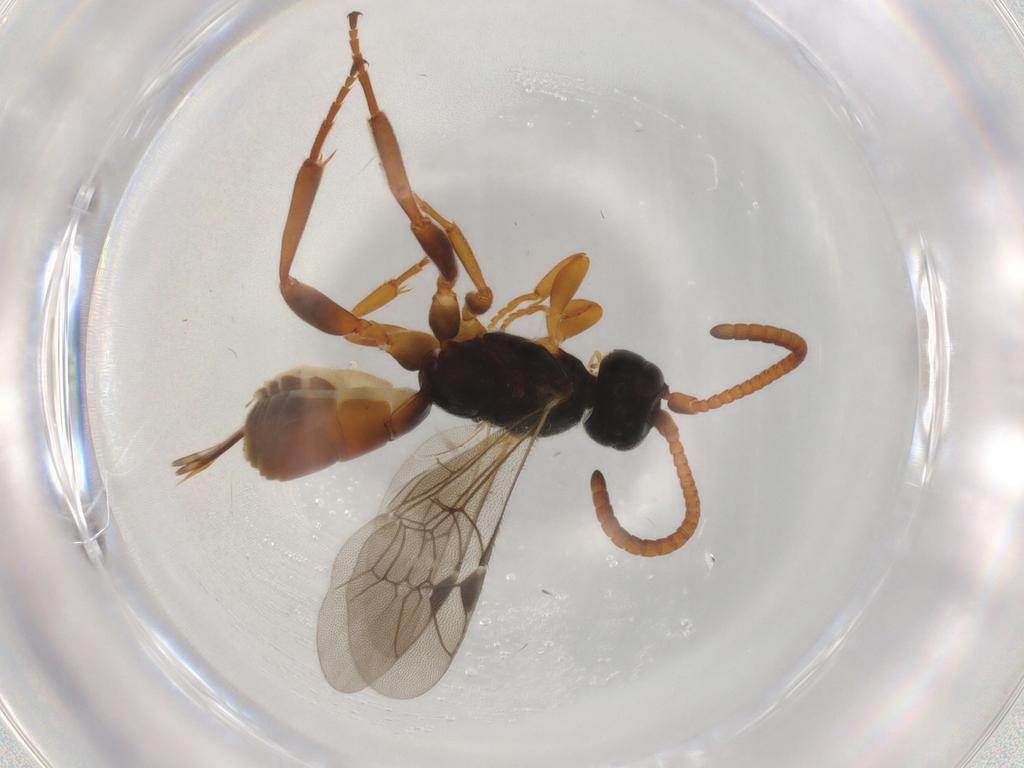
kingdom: Animalia
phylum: Arthropoda
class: Insecta
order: Hymenoptera
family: Ichneumonidae
